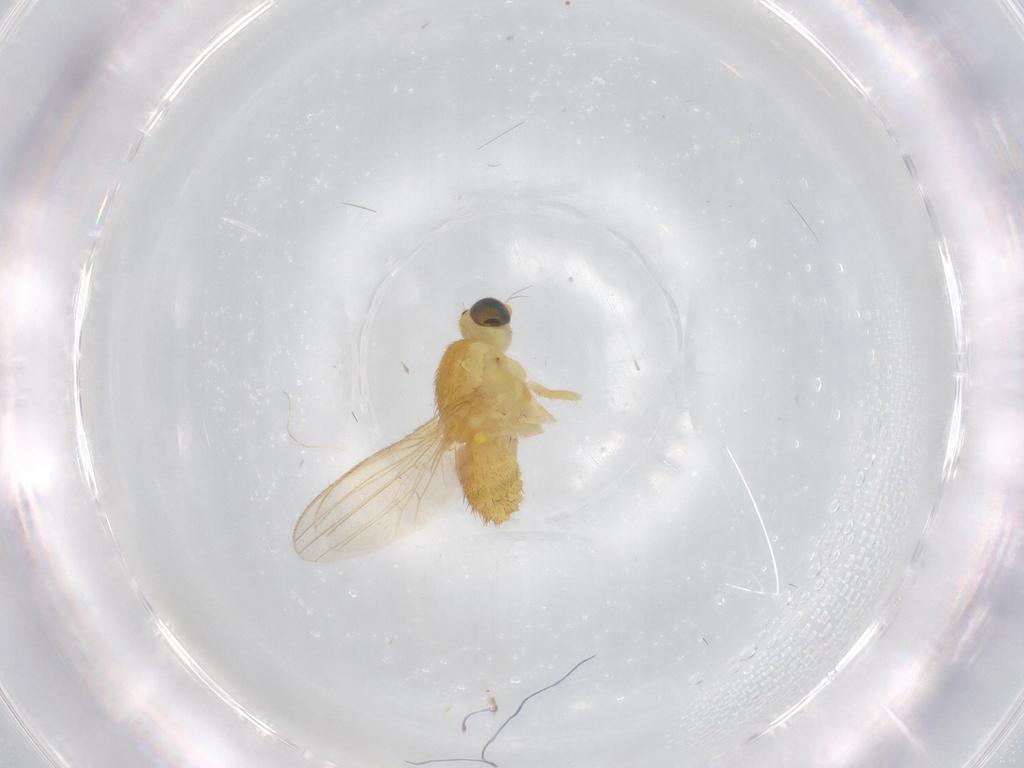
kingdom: Animalia
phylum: Arthropoda
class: Insecta
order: Diptera
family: Chyromyidae
